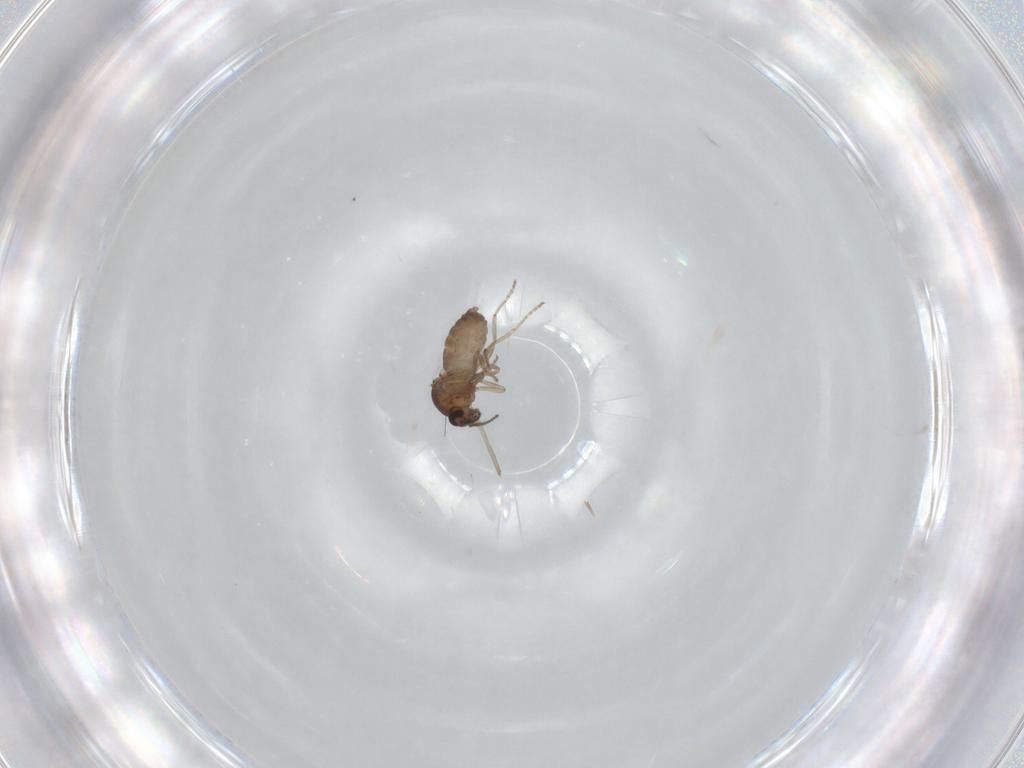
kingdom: Animalia
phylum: Arthropoda
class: Insecta
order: Diptera
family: Ceratopogonidae
